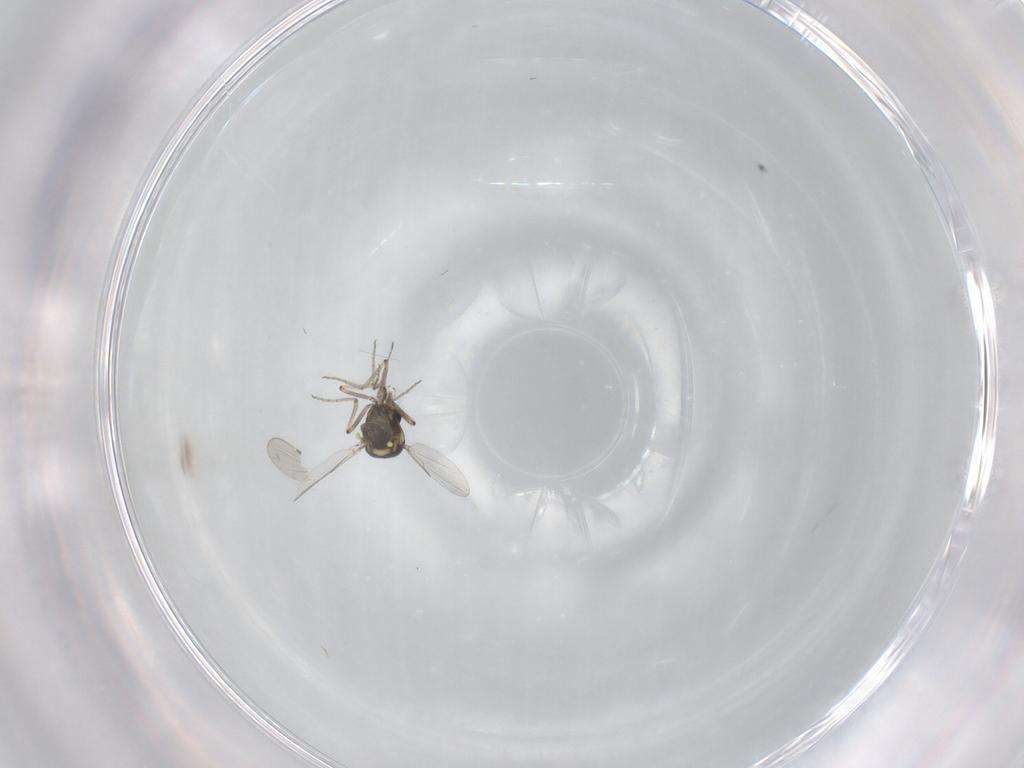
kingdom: Animalia
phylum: Arthropoda
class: Insecta
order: Diptera
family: Ceratopogonidae
